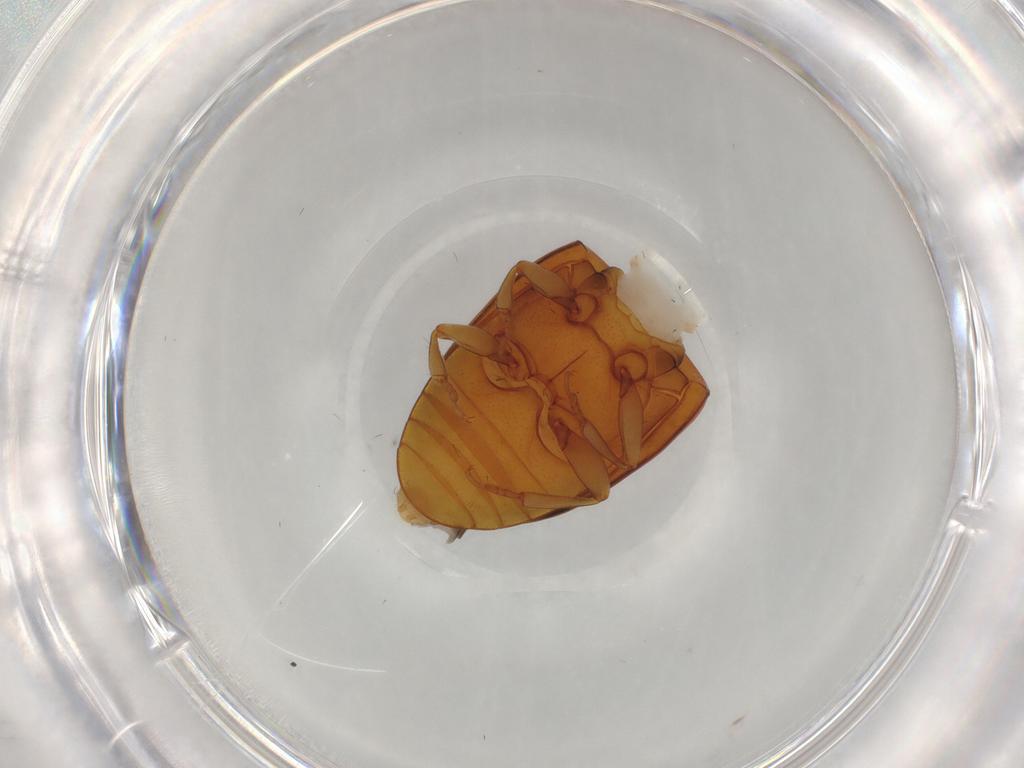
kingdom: Animalia
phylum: Arthropoda
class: Insecta
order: Coleoptera
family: Erotylidae
